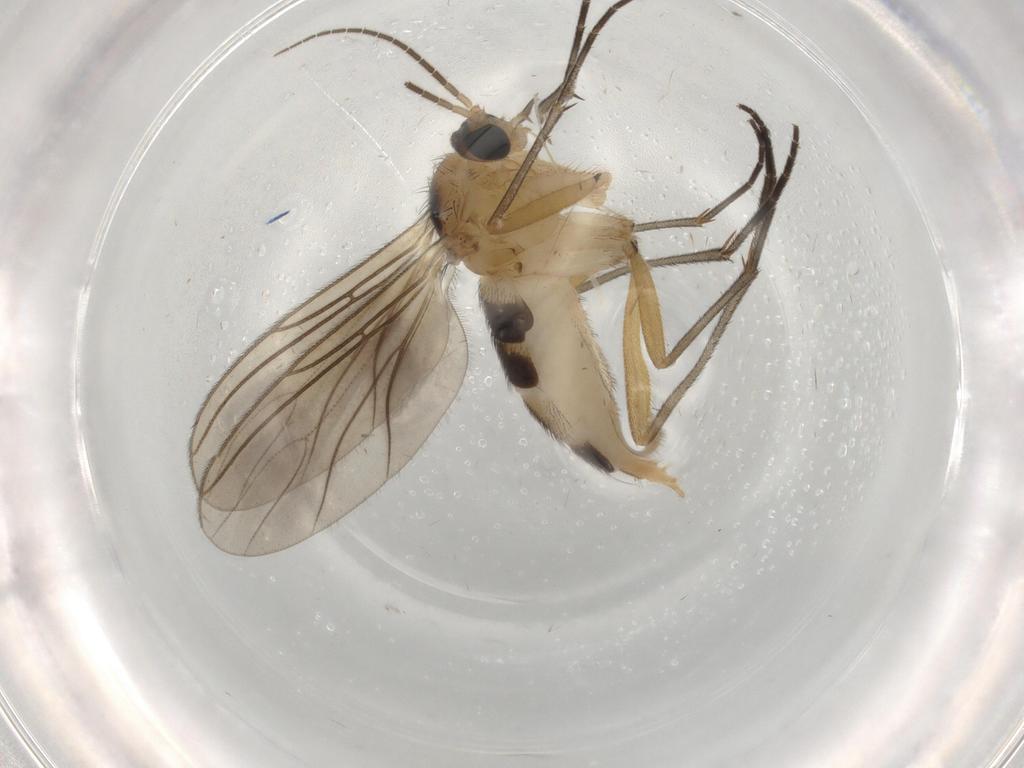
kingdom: Animalia
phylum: Arthropoda
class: Insecta
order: Diptera
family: Sciaridae
